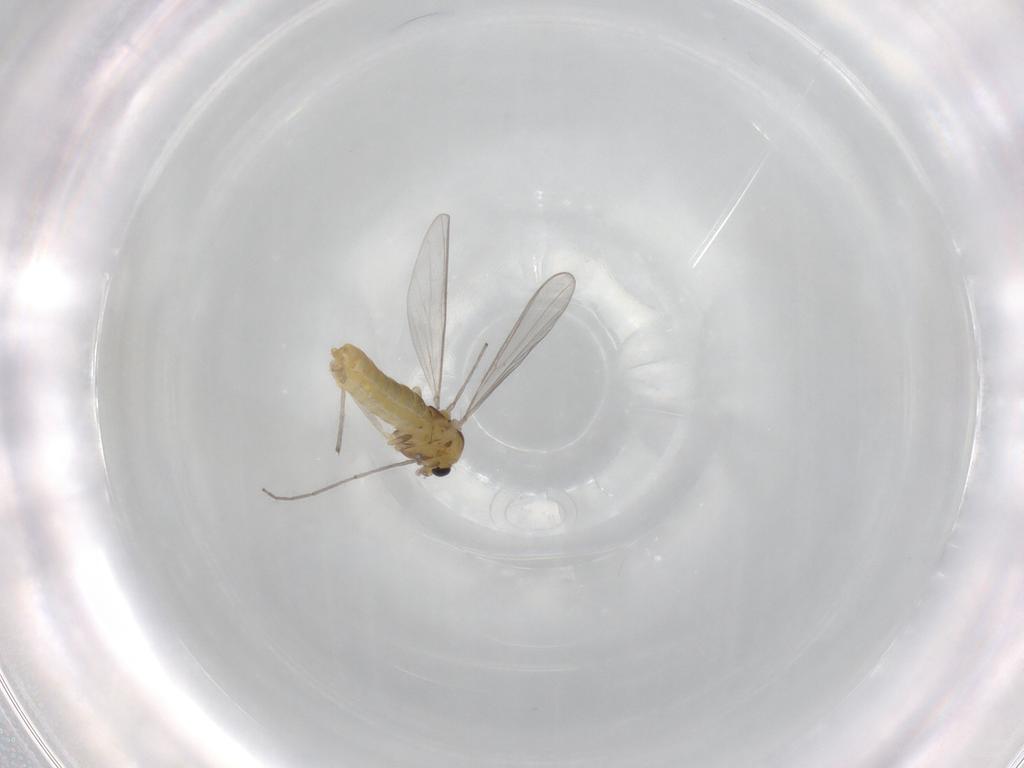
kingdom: Animalia
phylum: Arthropoda
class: Insecta
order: Diptera
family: Chironomidae
